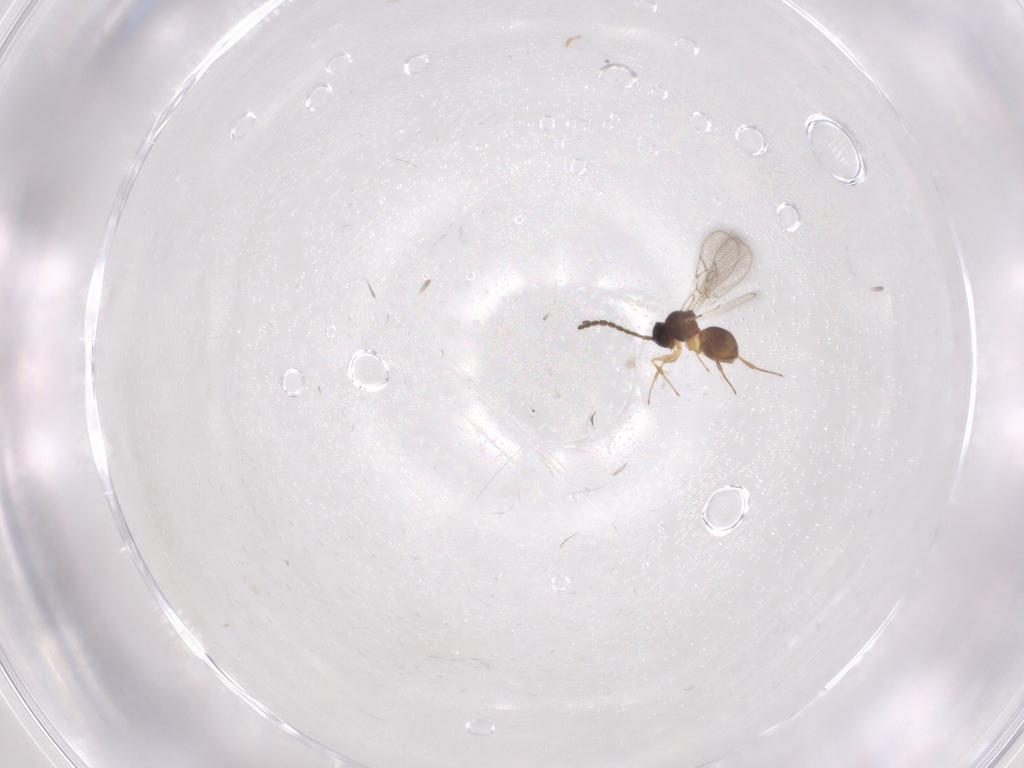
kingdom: Animalia
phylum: Arthropoda
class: Insecta
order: Hymenoptera
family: Figitidae
